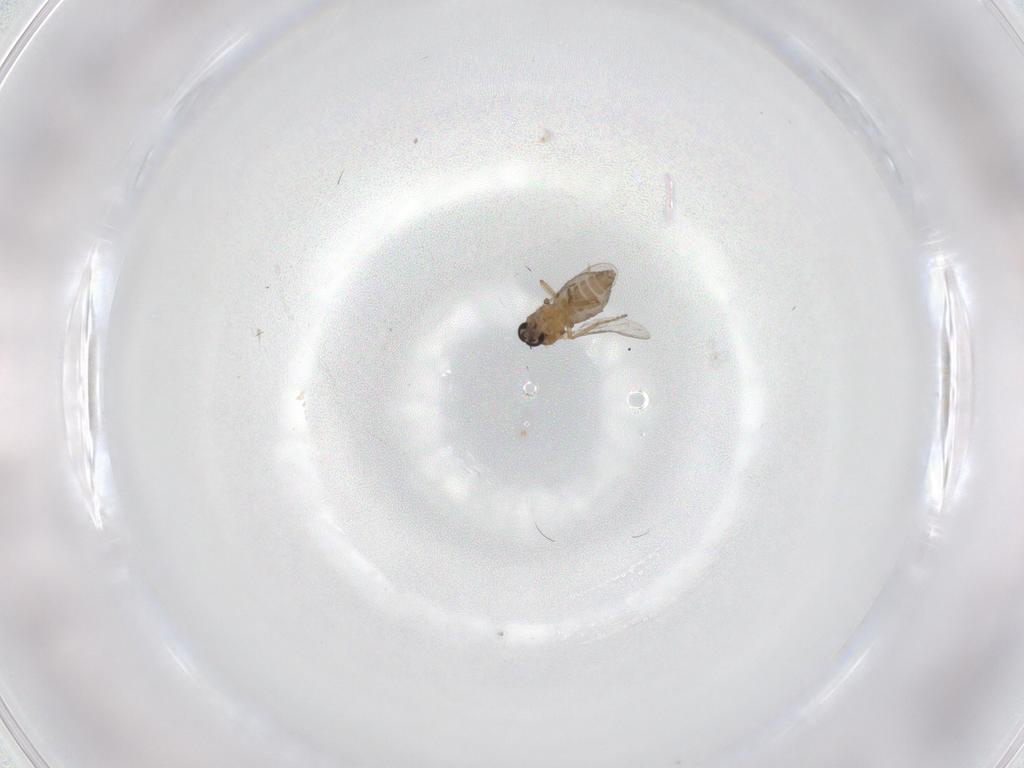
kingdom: Animalia
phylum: Arthropoda
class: Insecta
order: Diptera
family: Ceratopogonidae
